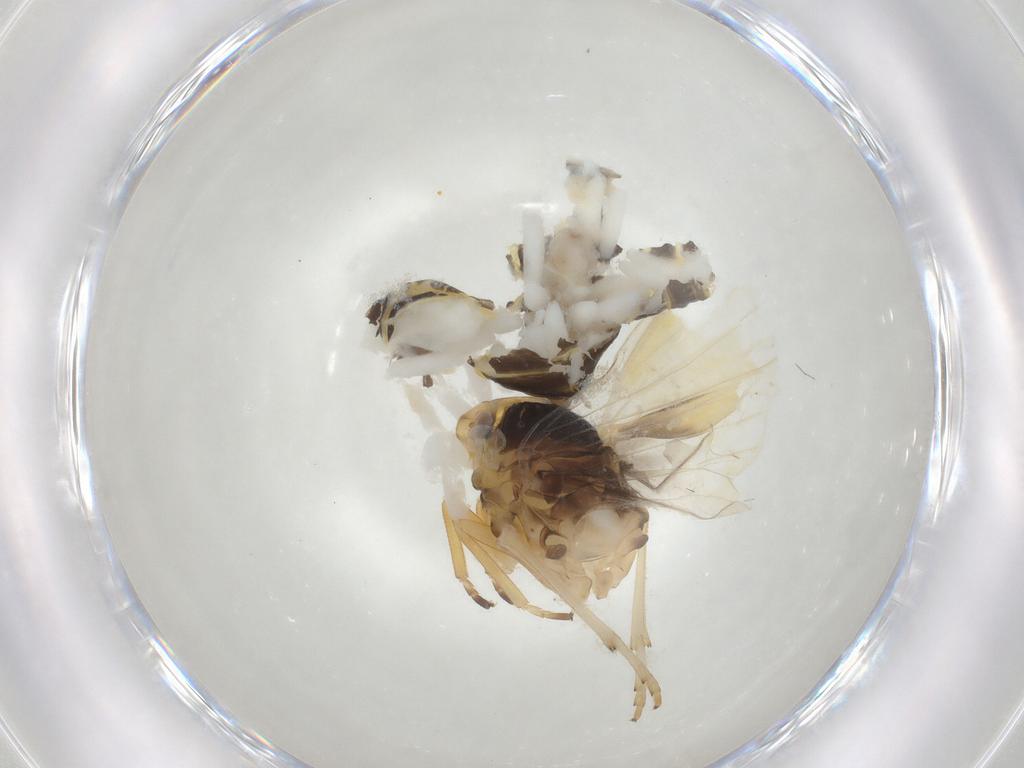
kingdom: Animalia
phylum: Arthropoda
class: Insecta
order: Hemiptera
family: Cixiidae
